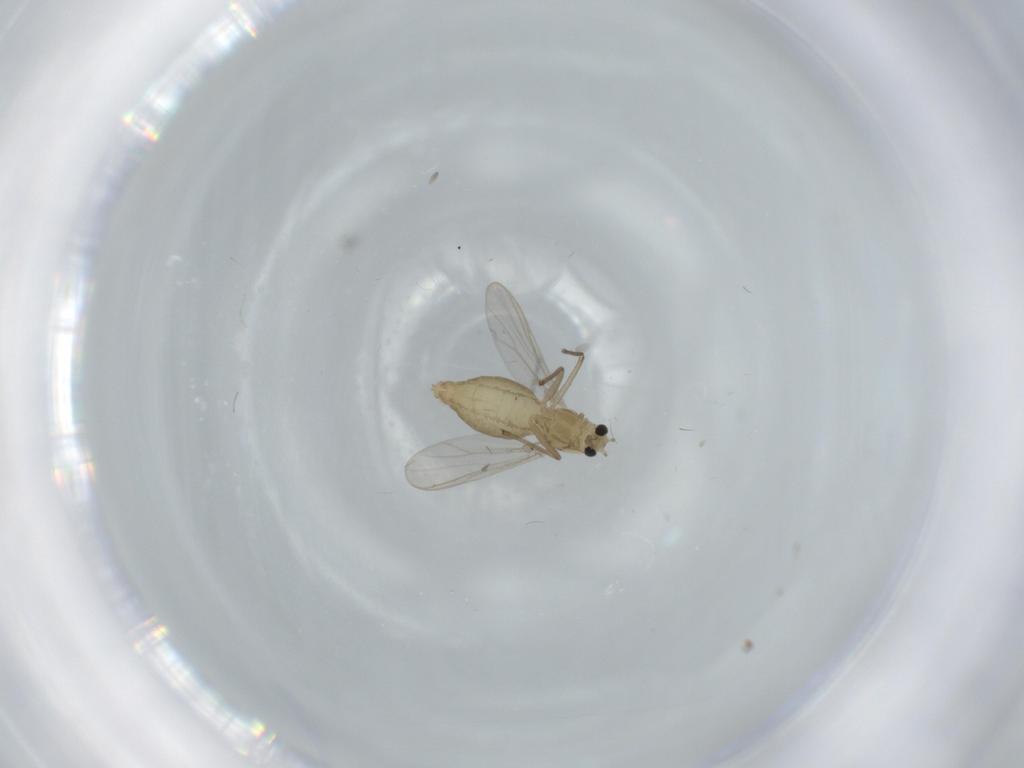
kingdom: Animalia
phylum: Arthropoda
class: Insecta
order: Diptera
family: Chironomidae
